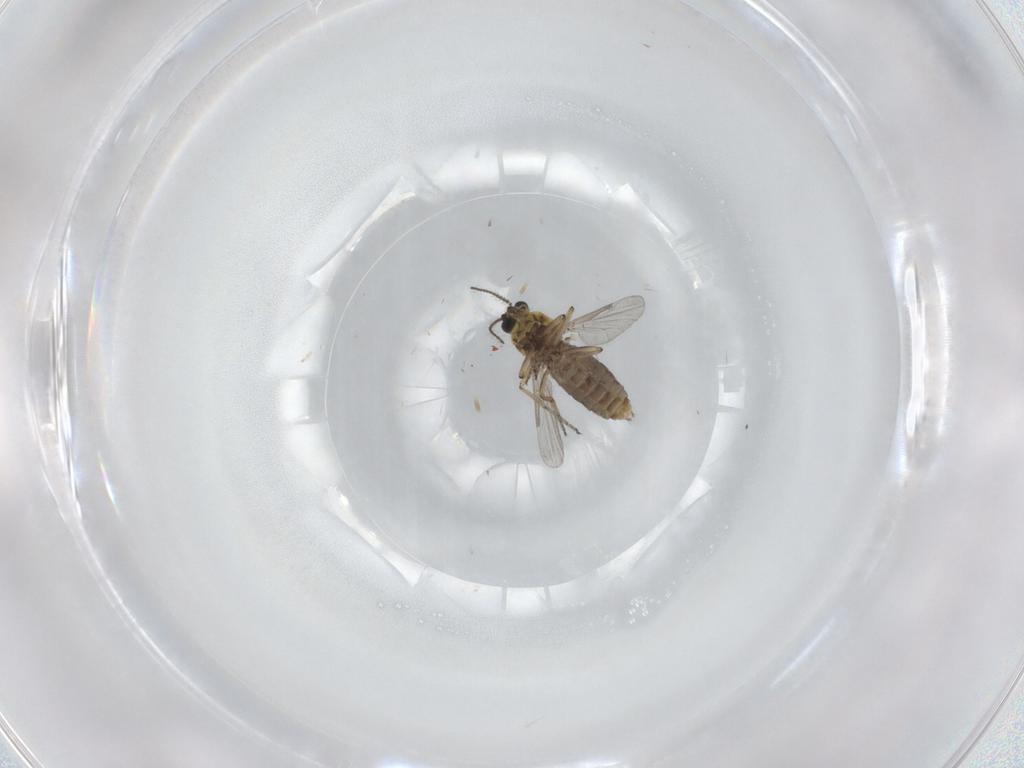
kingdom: Animalia
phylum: Arthropoda
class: Insecta
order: Diptera
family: Ceratopogonidae
